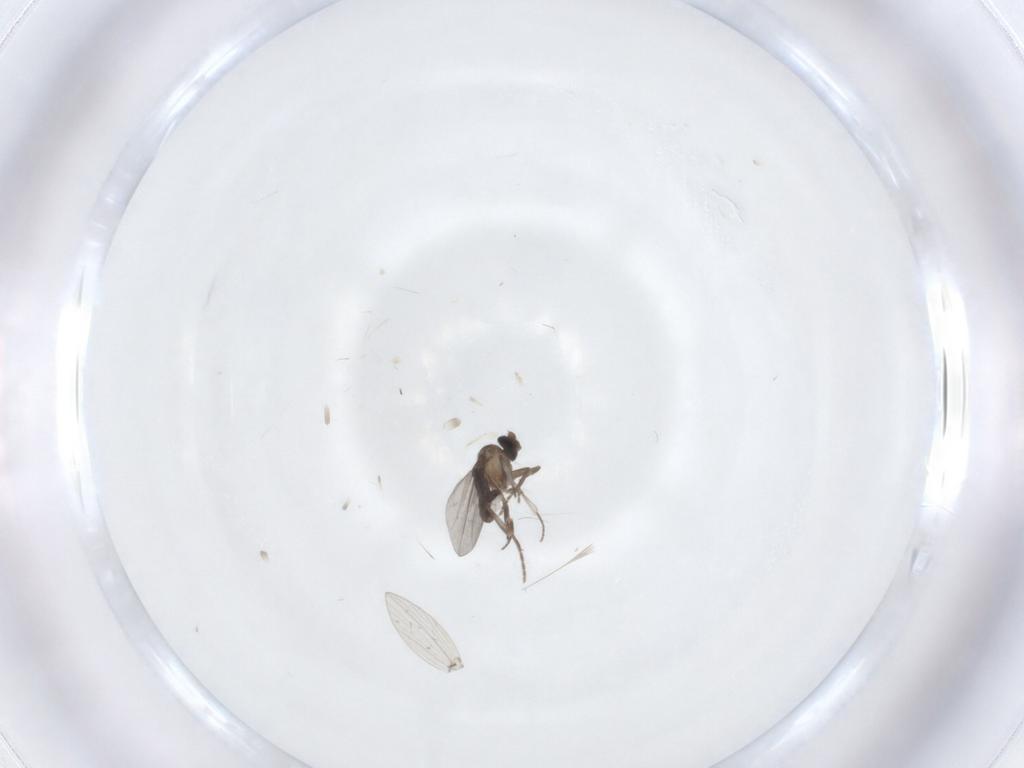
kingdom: Animalia
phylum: Arthropoda
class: Insecta
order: Diptera
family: Psychodidae
